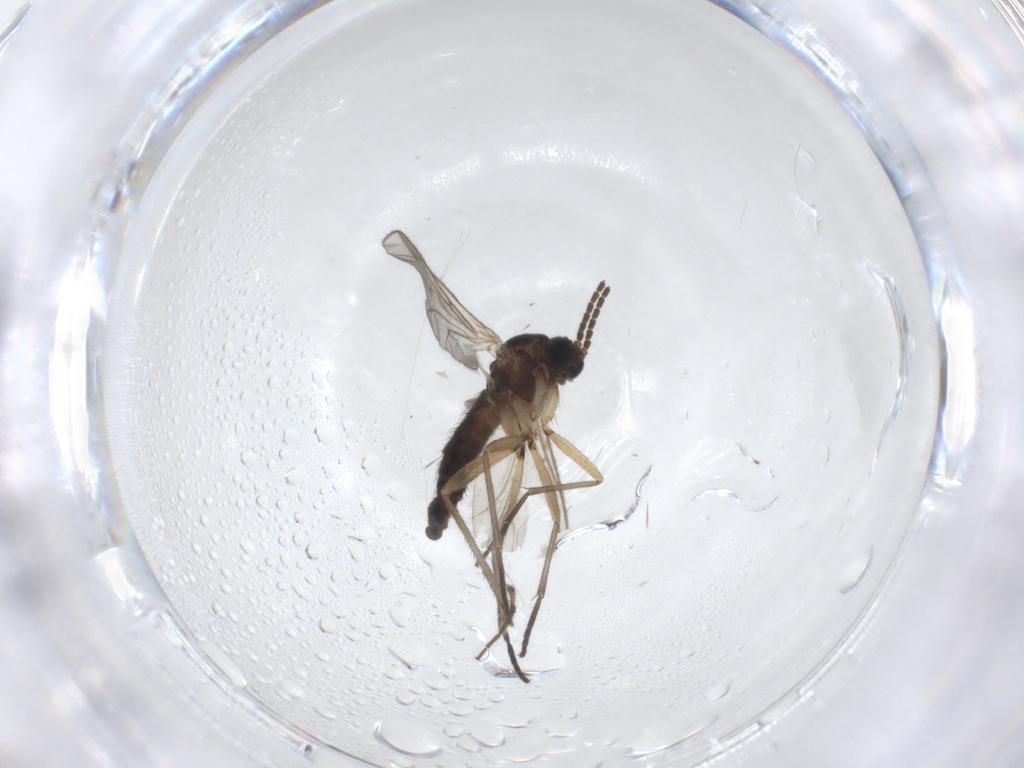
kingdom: Animalia
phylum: Arthropoda
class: Insecta
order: Diptera
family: Sciaridae
